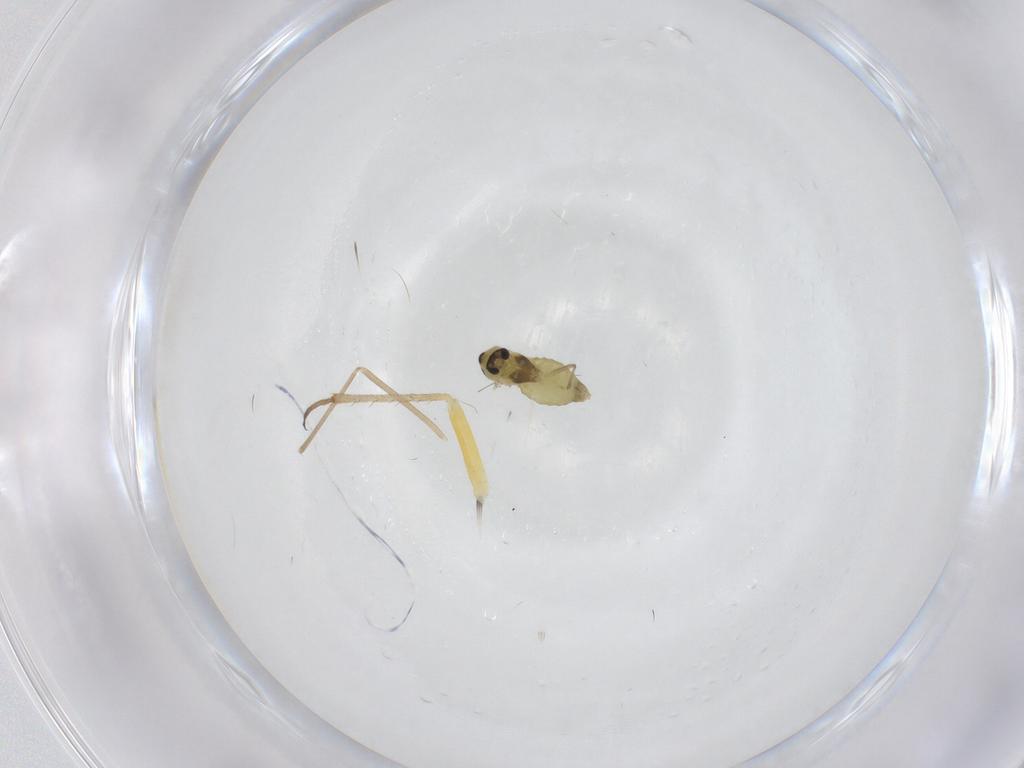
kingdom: Animalia
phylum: Arthropoda
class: Insecta
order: Diptera
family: Chironomidae
